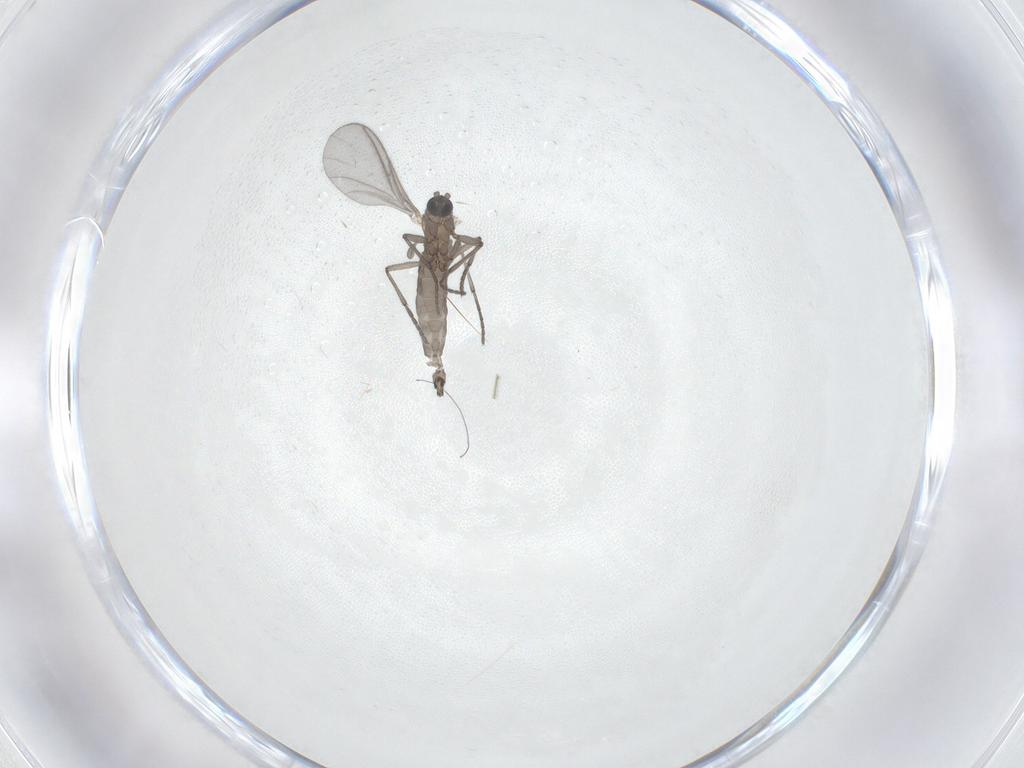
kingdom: Animalia
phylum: Arthropoda
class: Insecta
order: Diptera
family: Sciaridae
